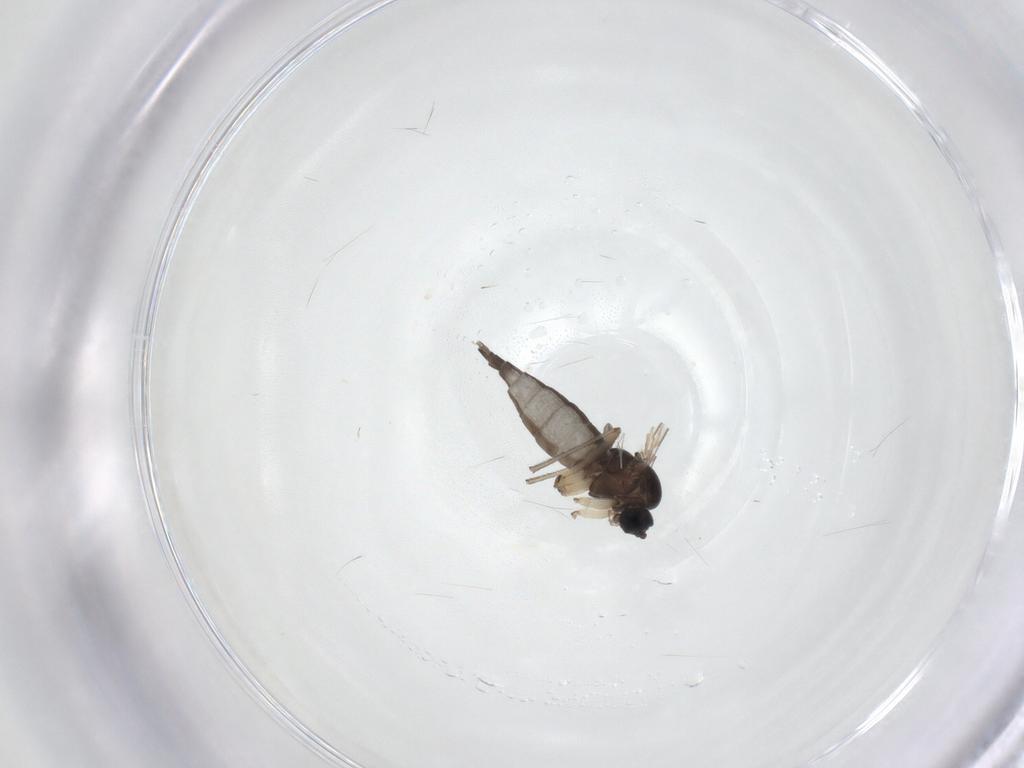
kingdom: Animalia
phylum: Arthropoda
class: Insecta
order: Diptera
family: Sciaridae
